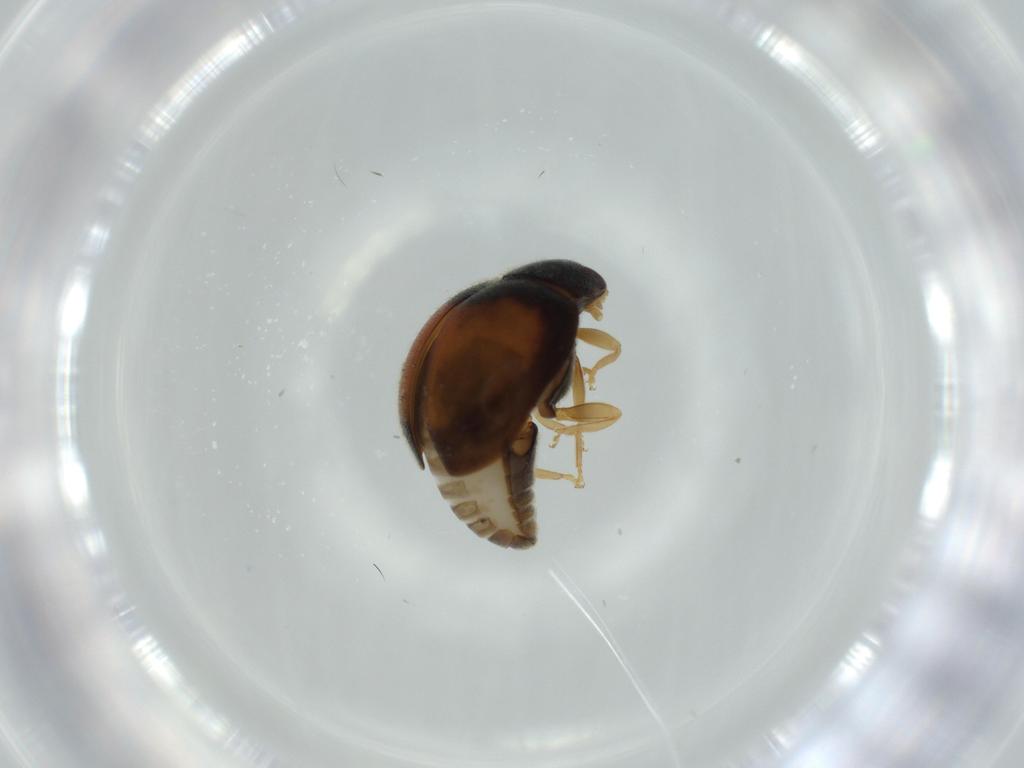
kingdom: Animalia
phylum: Arthropoda
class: Insecta
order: Coleoptera
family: Coccinellidae
